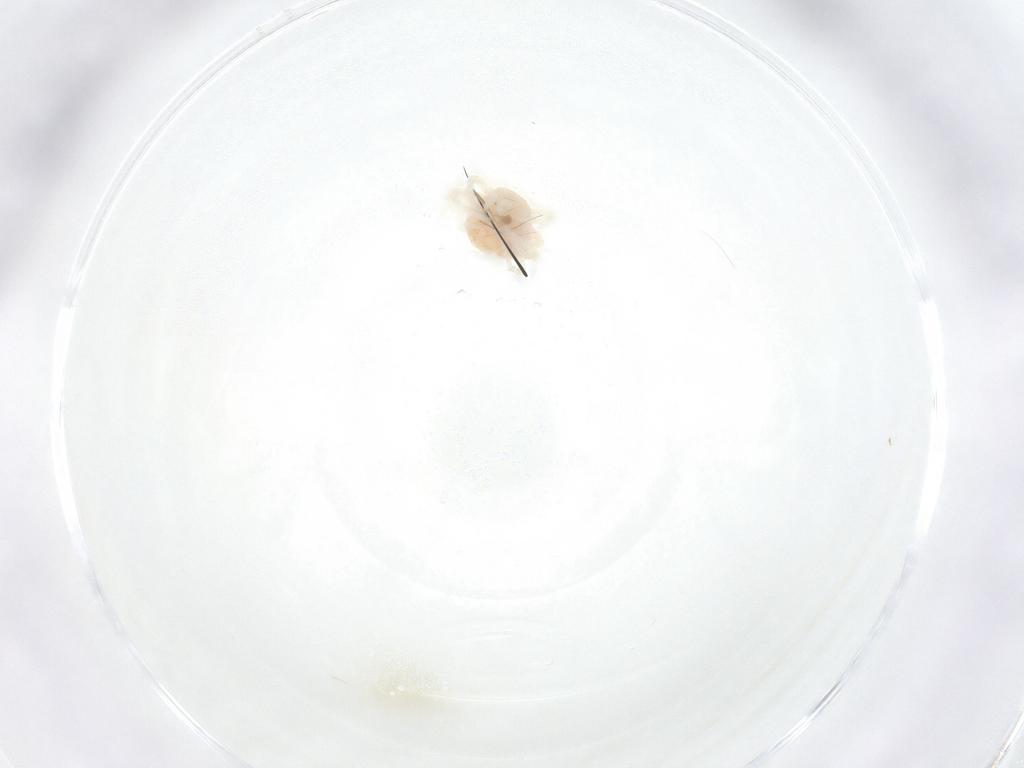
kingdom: Animalia
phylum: Arthropoda
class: Arachnida
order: Trombidiformes
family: Anystidae
